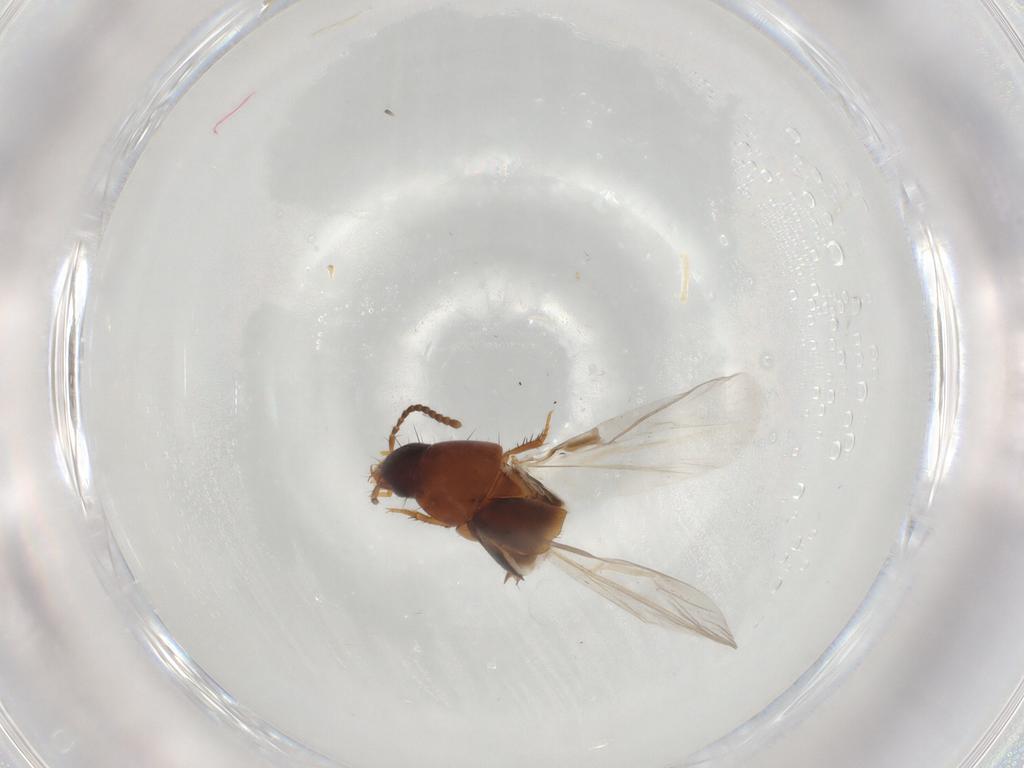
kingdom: Animalia
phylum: Arthropoda
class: Insecta
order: Coleoptera
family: Staphylinidae
